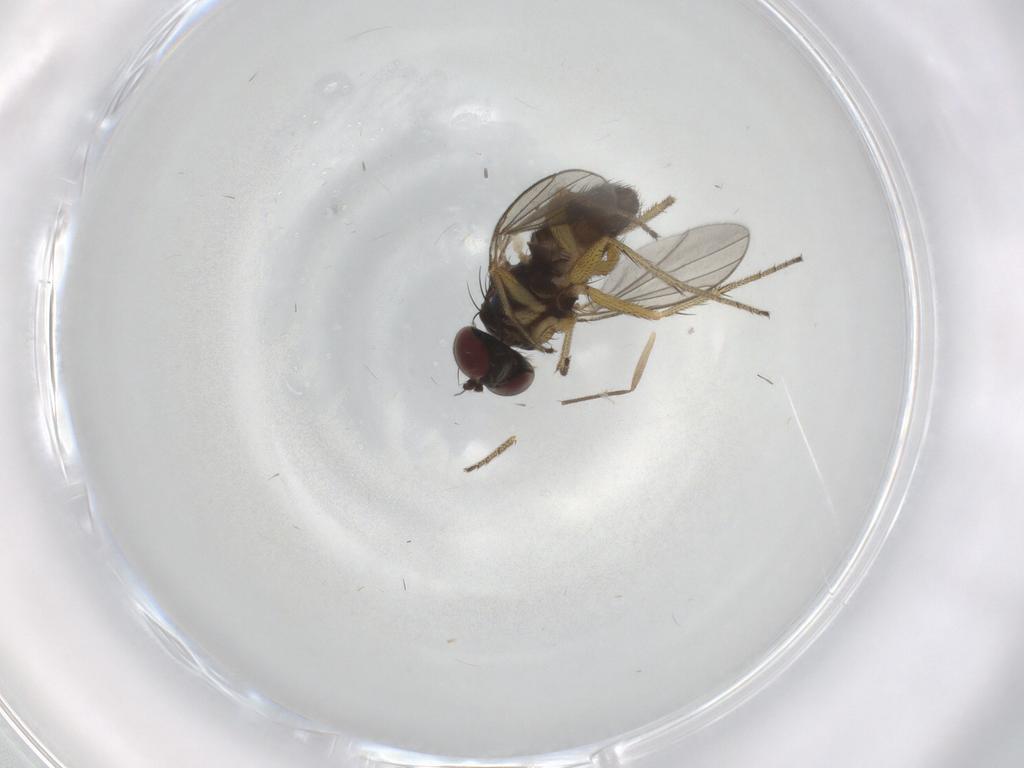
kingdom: Animalia
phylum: Arthropoda
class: Insecta
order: Diptera
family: Dolichopodidae
